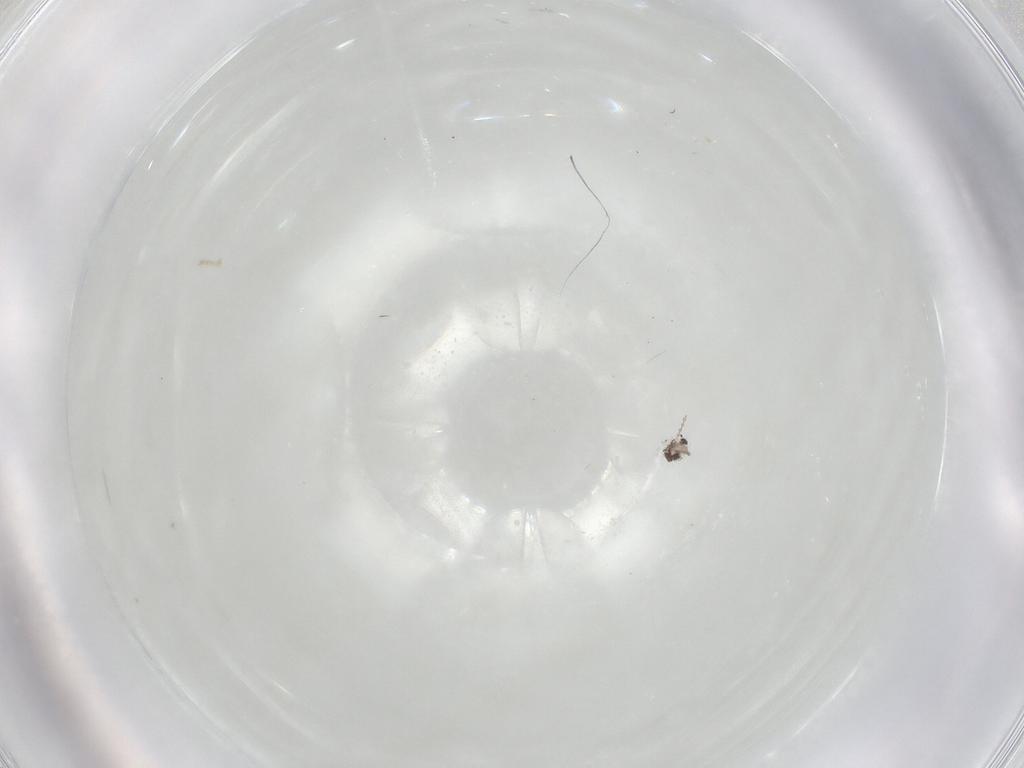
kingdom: Animalia
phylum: Arthropoda
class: Insecta
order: Diptera
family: Cecidomyiidae
